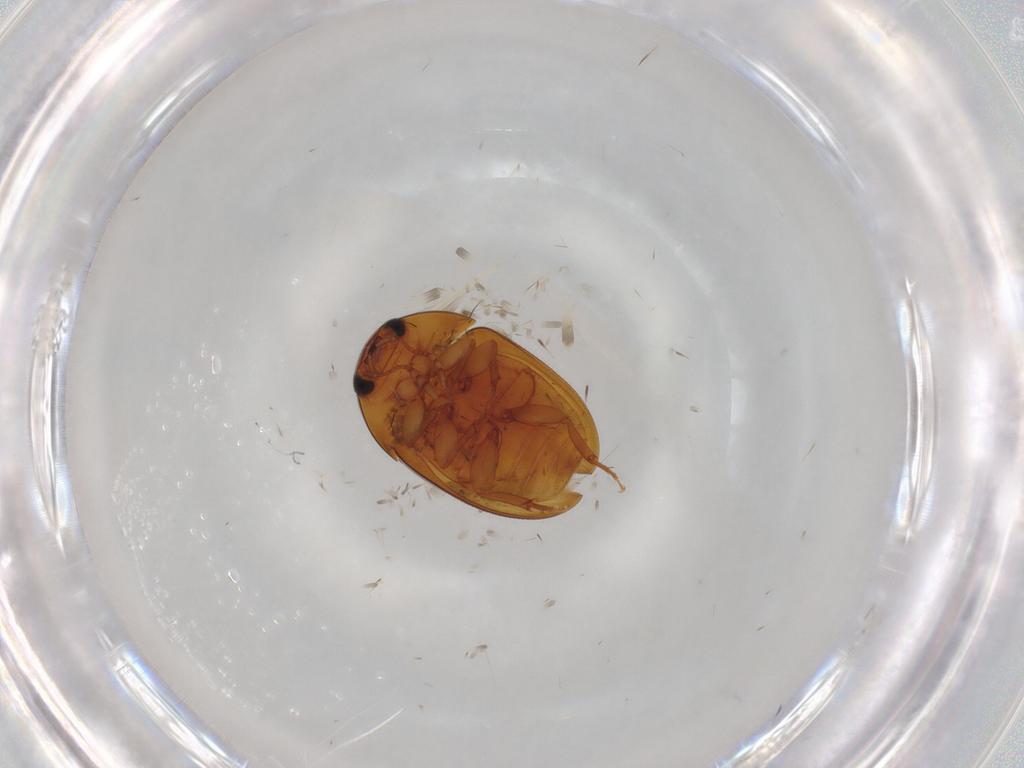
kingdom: Animalia
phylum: Arthropoda
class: Insecta
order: Coleoptera
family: Phalacridae
